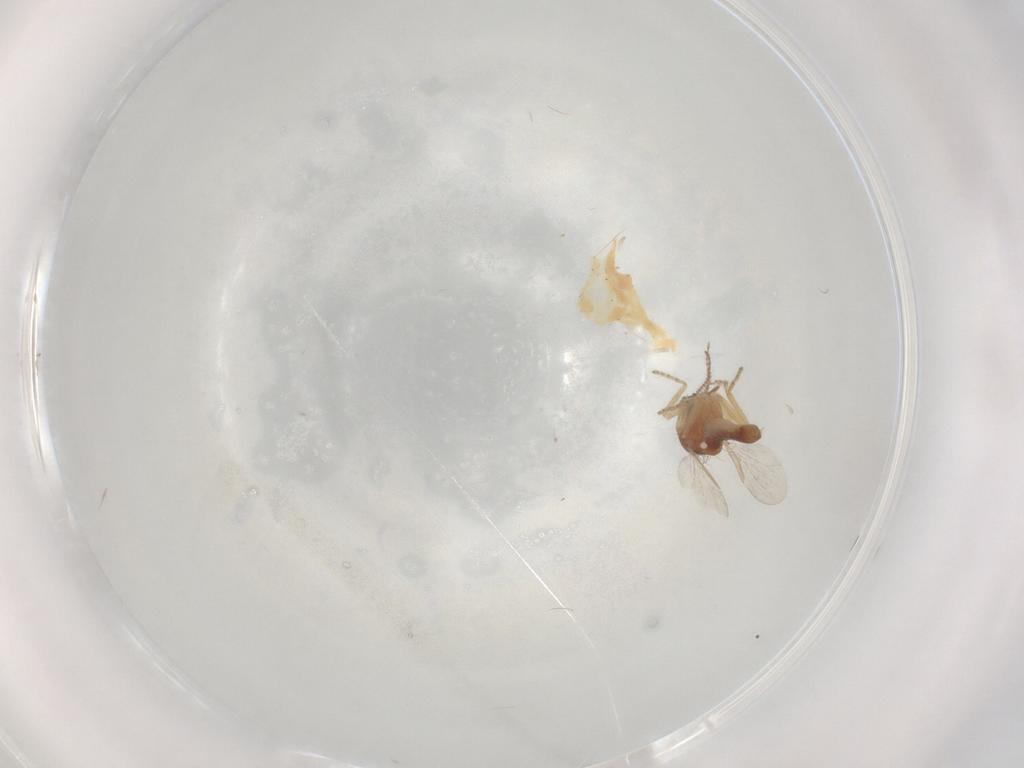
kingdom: Animalia
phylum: Arthropoda
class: Insecta
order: Diptera
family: Ceratopogonidae
